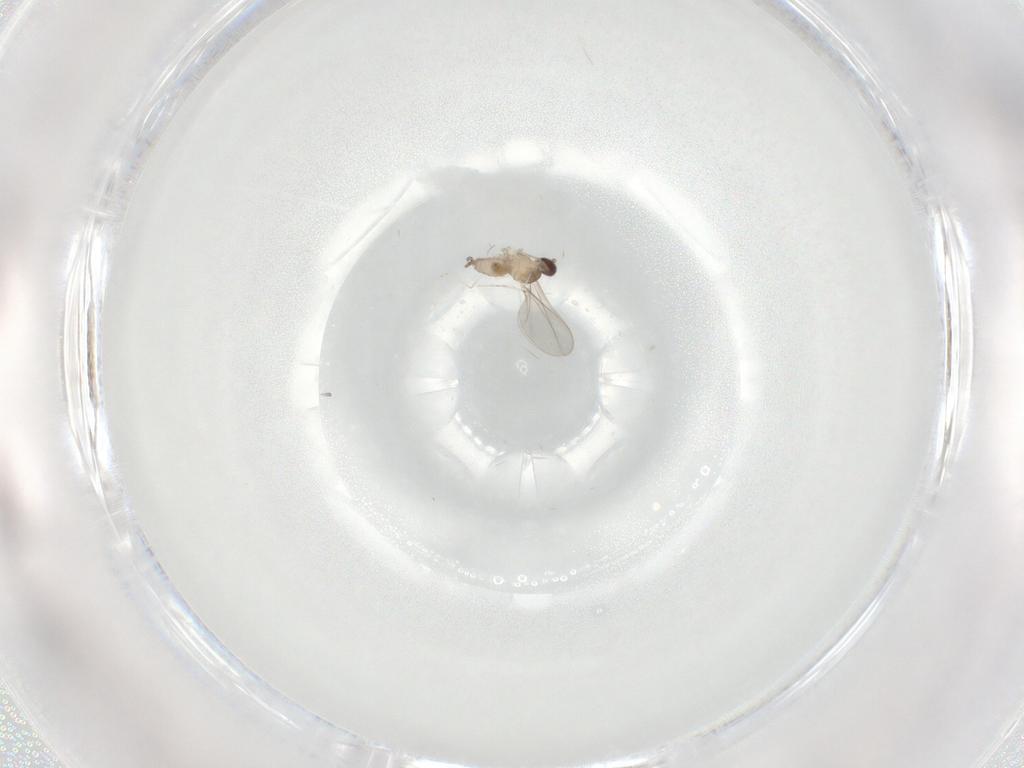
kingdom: Animalia
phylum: Arthropoda
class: Insecta
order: Diptera
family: Cecidomyiidae
